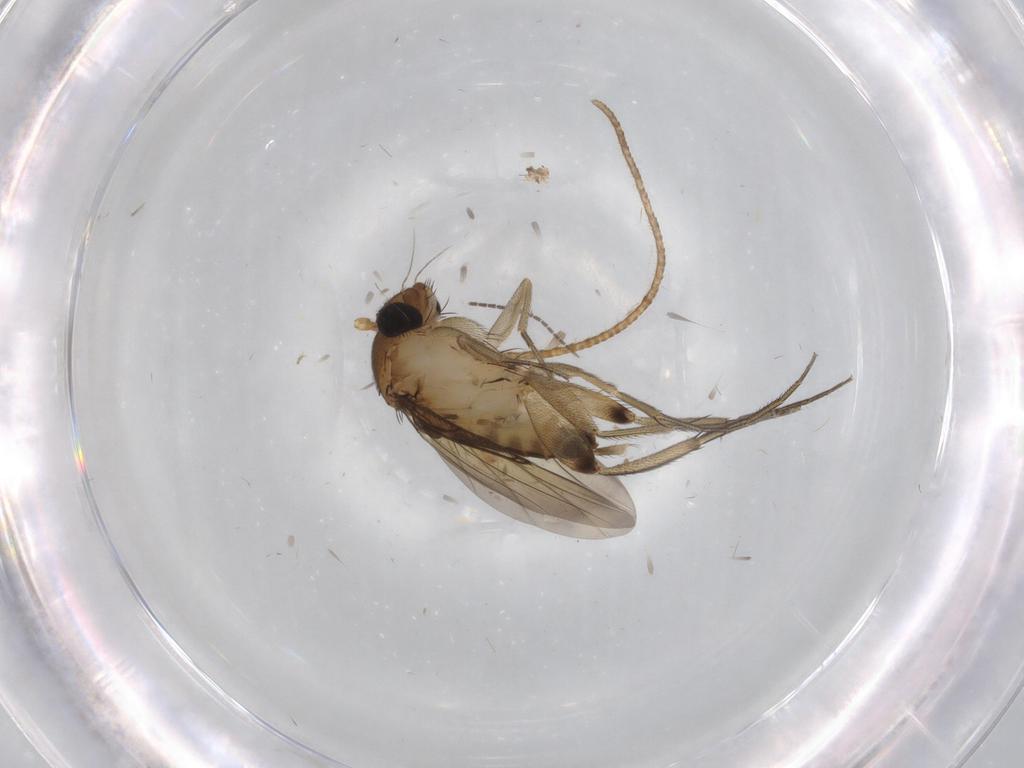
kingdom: Animalia
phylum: Arthropoda
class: Insecta
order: Diptera
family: Phoridae
